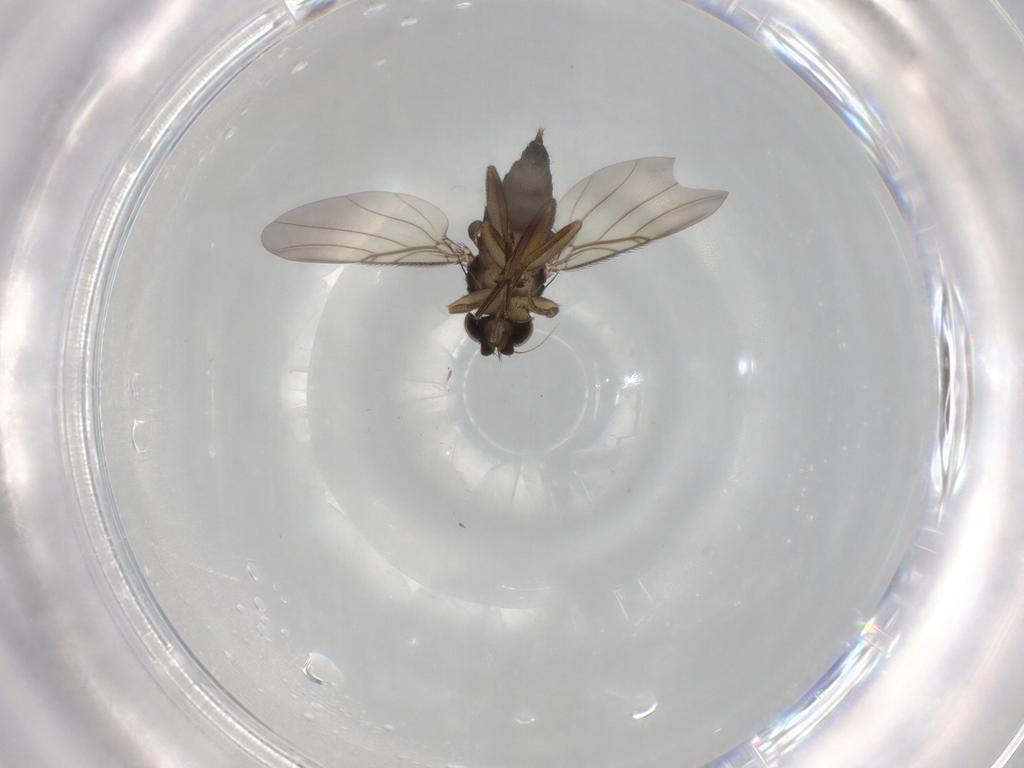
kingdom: Animalia
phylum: Arthropoda
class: Insecta
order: Diptera
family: Phoridae
